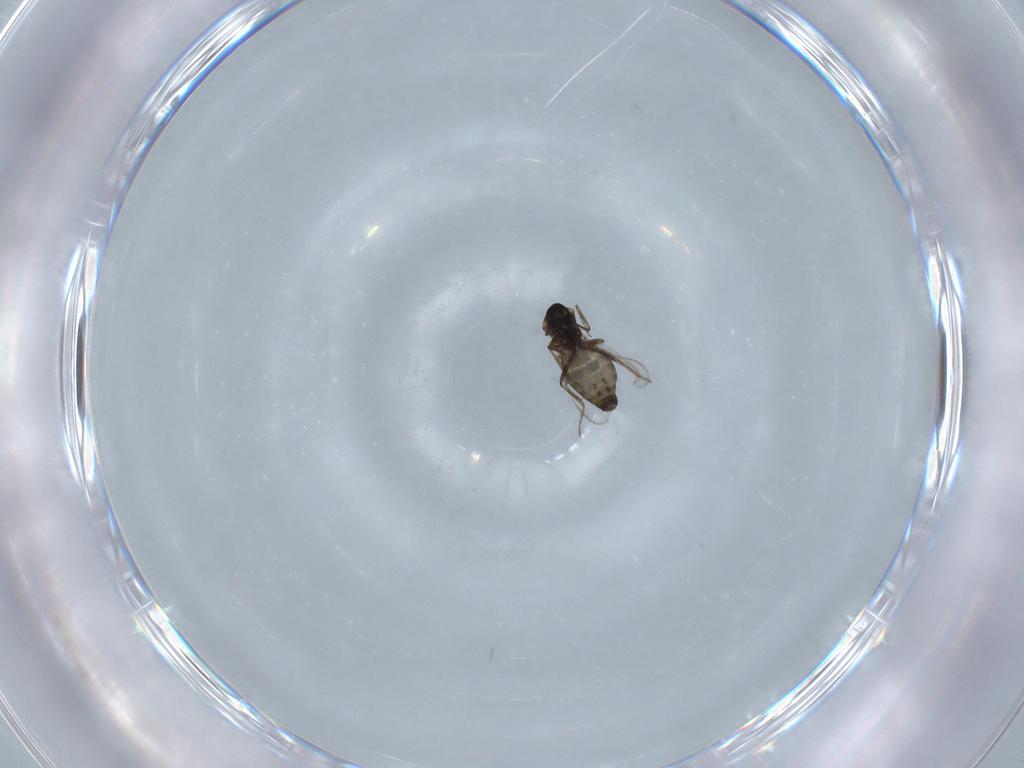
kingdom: Animalia
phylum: Arthropoda
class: Insecta
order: Diptera
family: Ceratopogonidae
